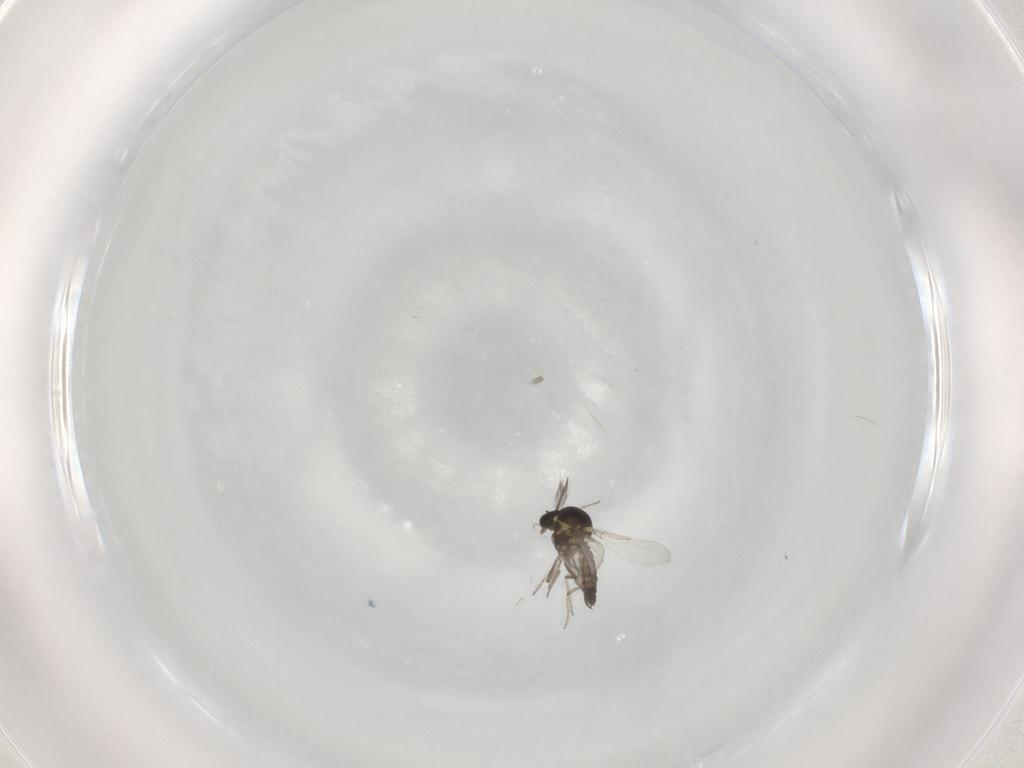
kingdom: Animalia
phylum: Arthropoda
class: Insecta
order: Diptera
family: Ceratopogonidae
